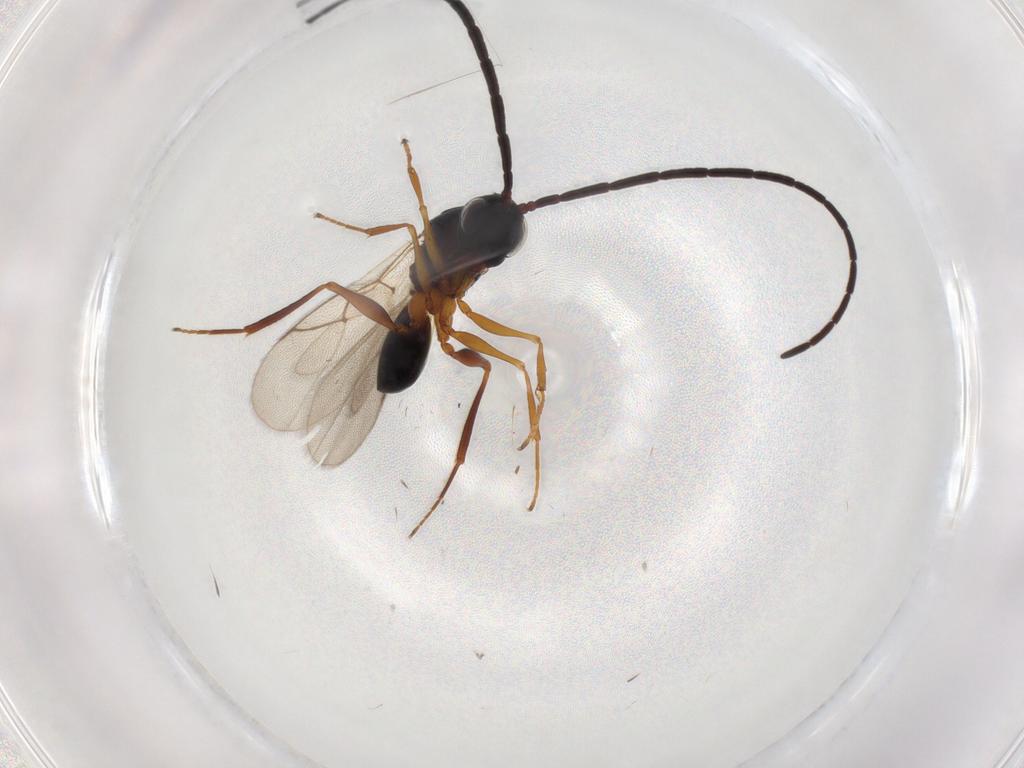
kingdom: Animalia
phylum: Arthropoda
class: Insecta
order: Hymenoptera
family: Figitidae
